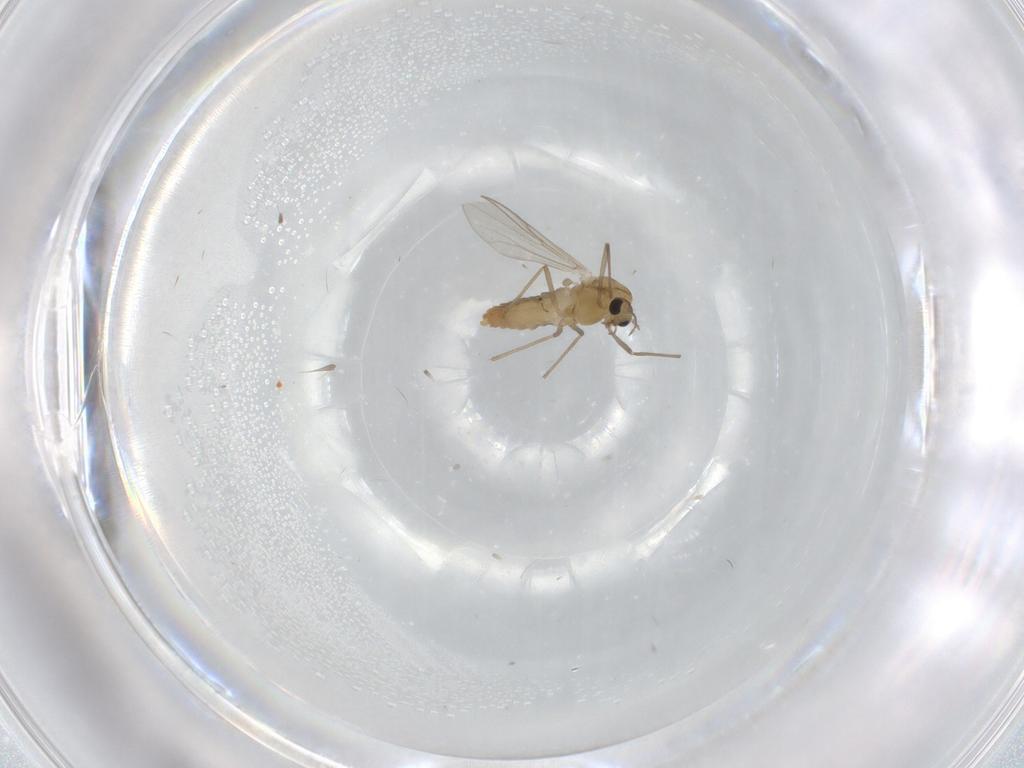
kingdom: Animalia
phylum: Arthropoda
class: Insecta
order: Diptera
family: Chironomidae
